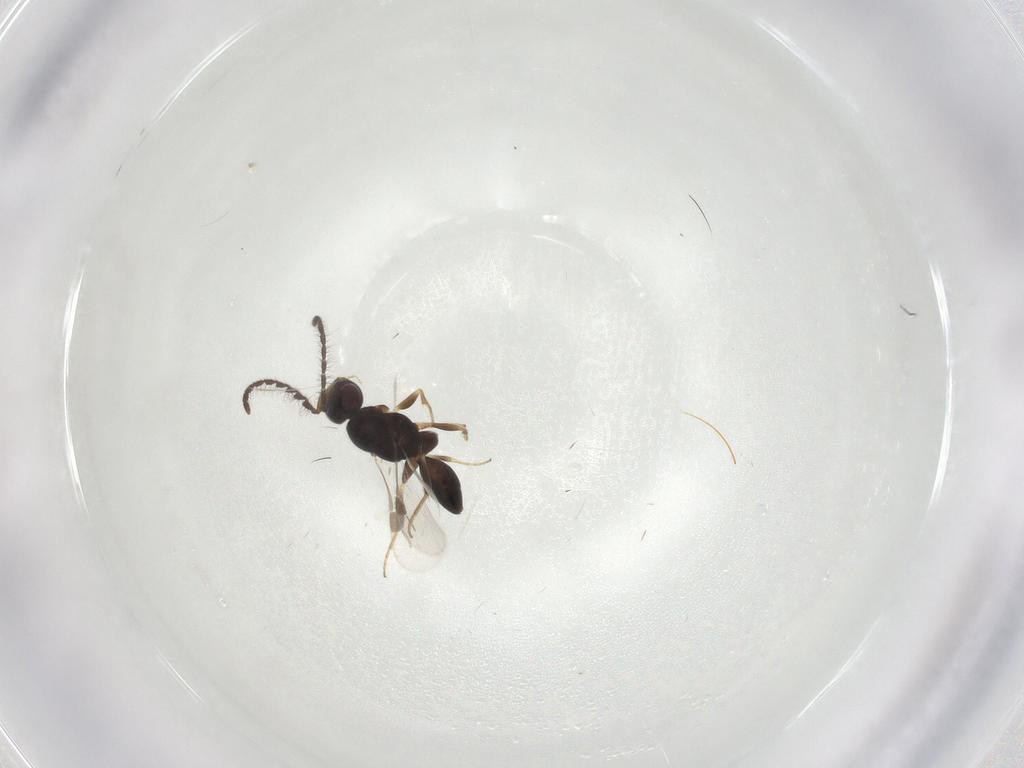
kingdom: Animalia
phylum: Arthropoda
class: Insecta
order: Hymenoptera
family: Megaspilidae
